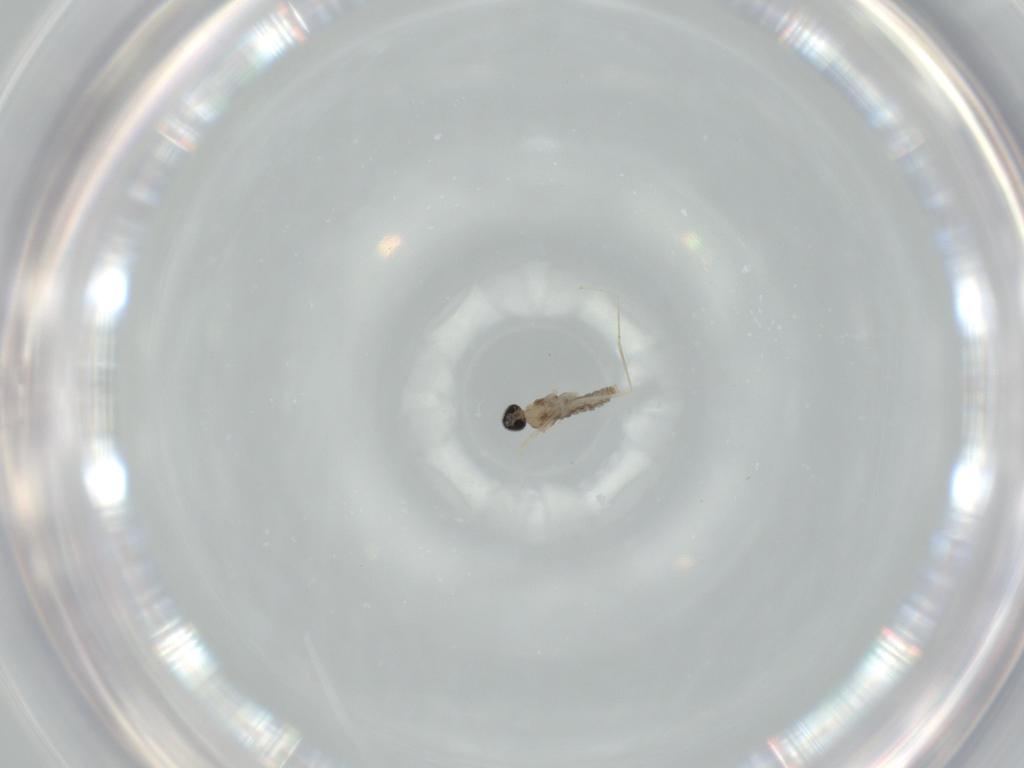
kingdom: Animalia
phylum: Arthropoda
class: Insecta
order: Diptera
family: Cecidomyiidae
